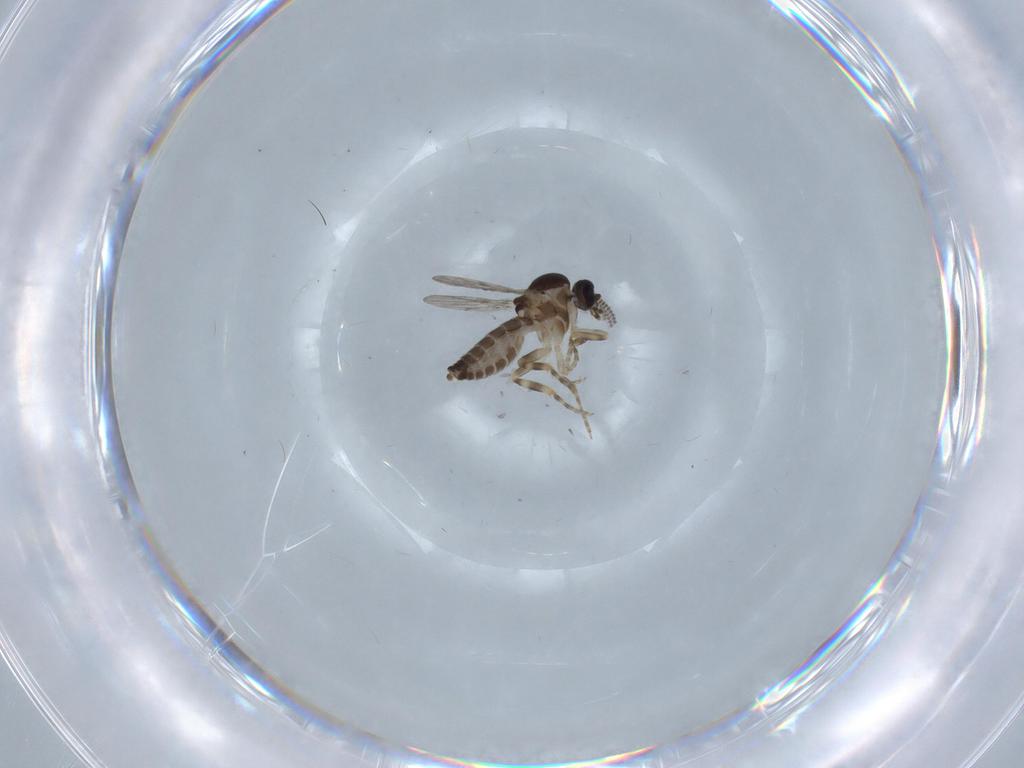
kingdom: Animalia
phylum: Arthropoda
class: Insecta
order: Diptera
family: Ceratopogonidae
